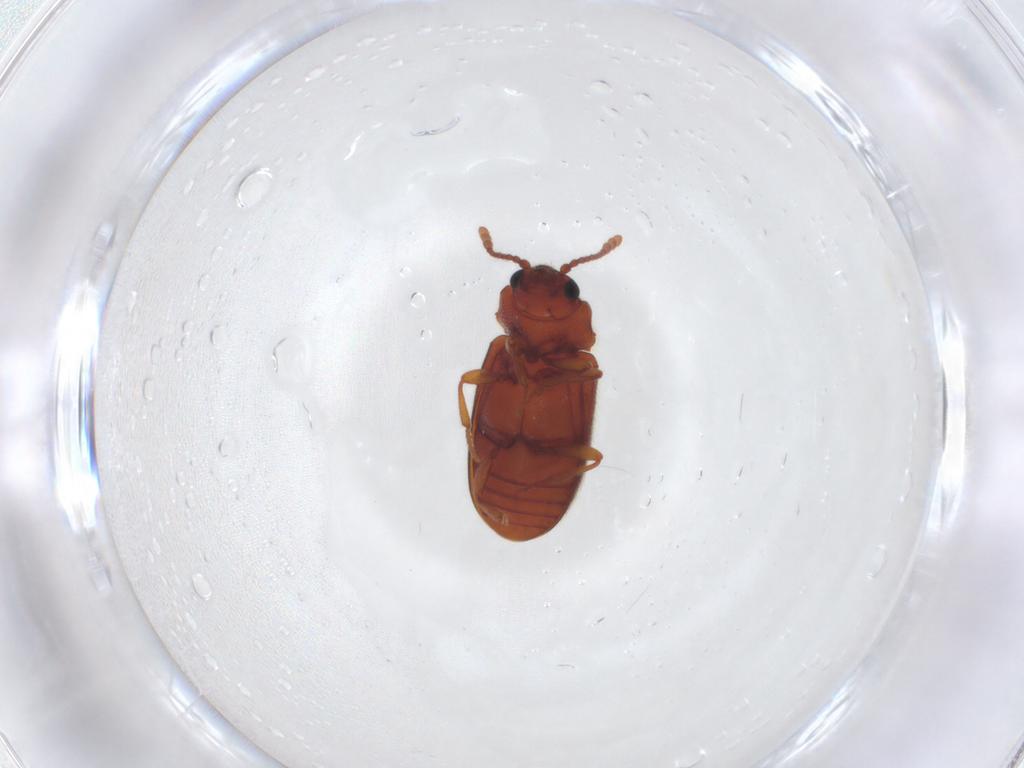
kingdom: Animalia
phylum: Arthropoda
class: Insecta
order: Coleoptera
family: Cryptophagidae
